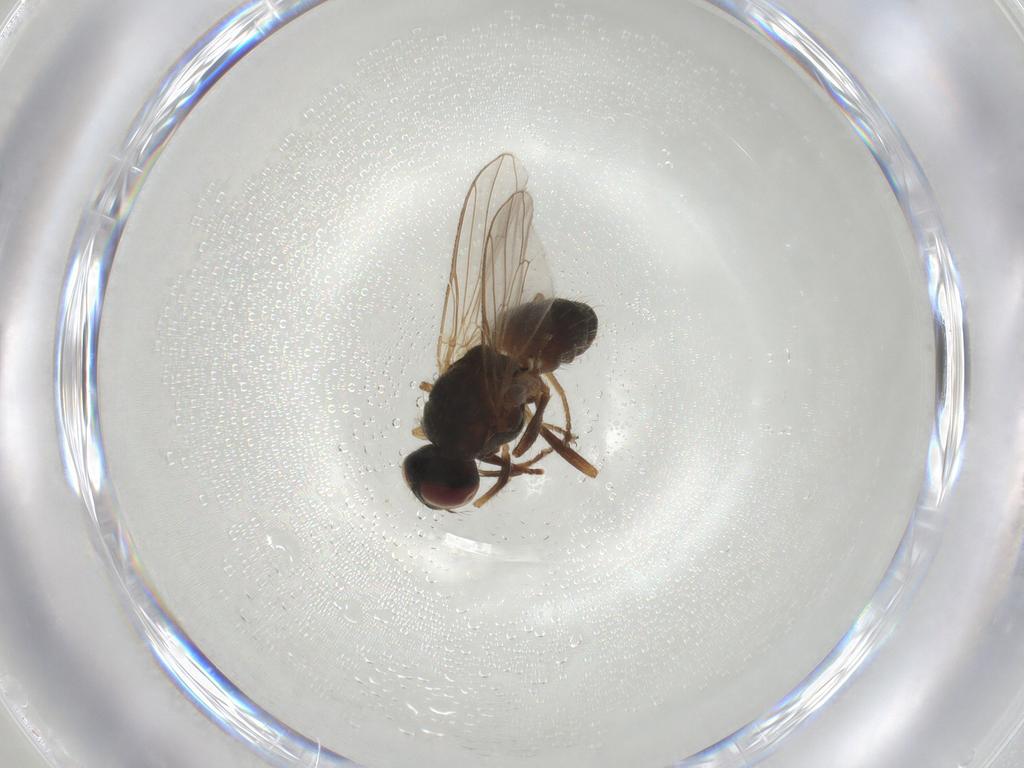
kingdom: Animalia
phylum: Arthropoda
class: Insecta
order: Diptera
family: Muscidae
